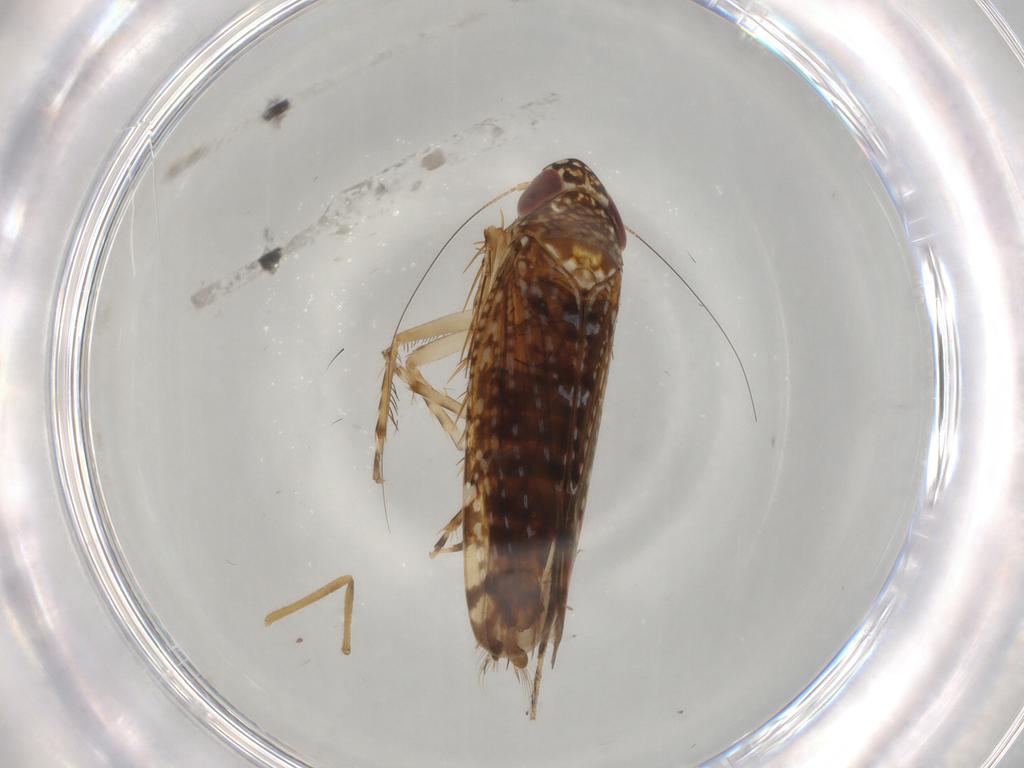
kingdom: Animalia
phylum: Arthropoda
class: Insecta
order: Hemiptera
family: Cicadellidae
